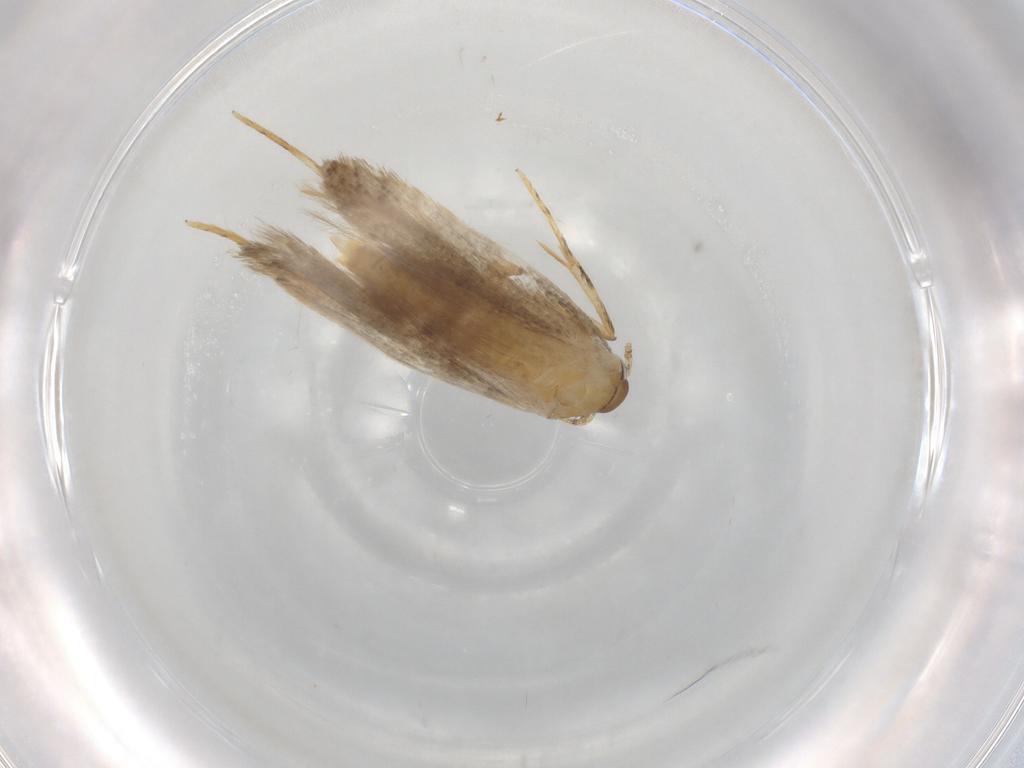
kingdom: Animalia
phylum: Arthropoda
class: Insecta
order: Lepidoptera
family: Autostichidae
